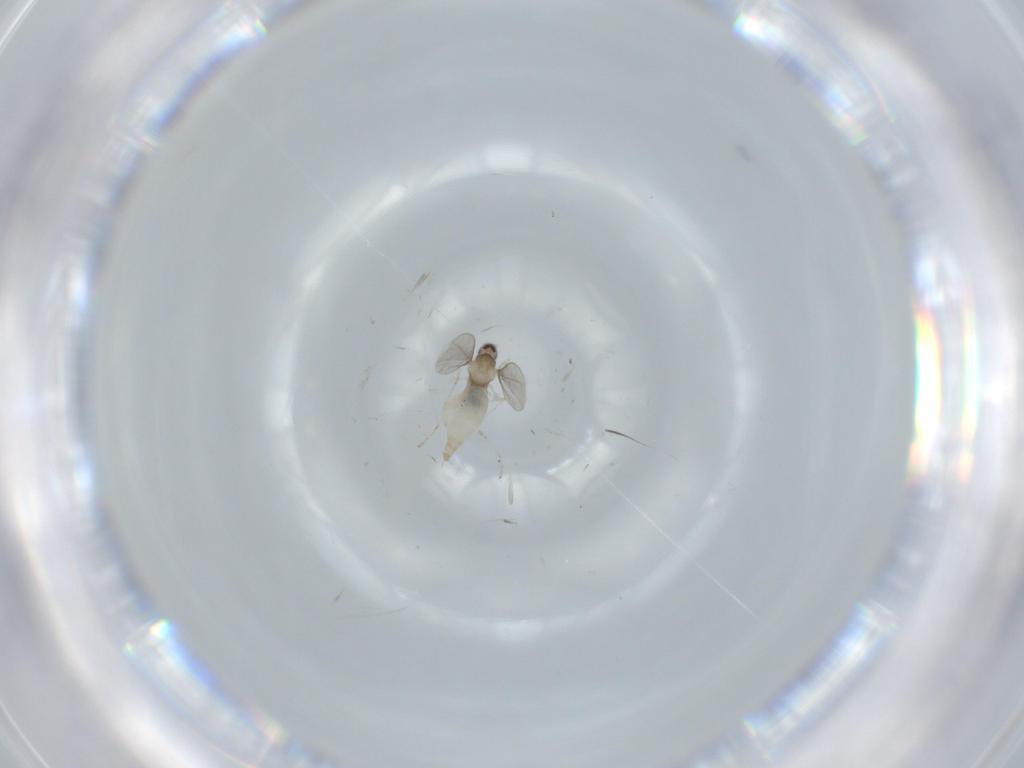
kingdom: Animalia
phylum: Arthropoda
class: Insecta
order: Diptera
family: Cecidomyiidae
